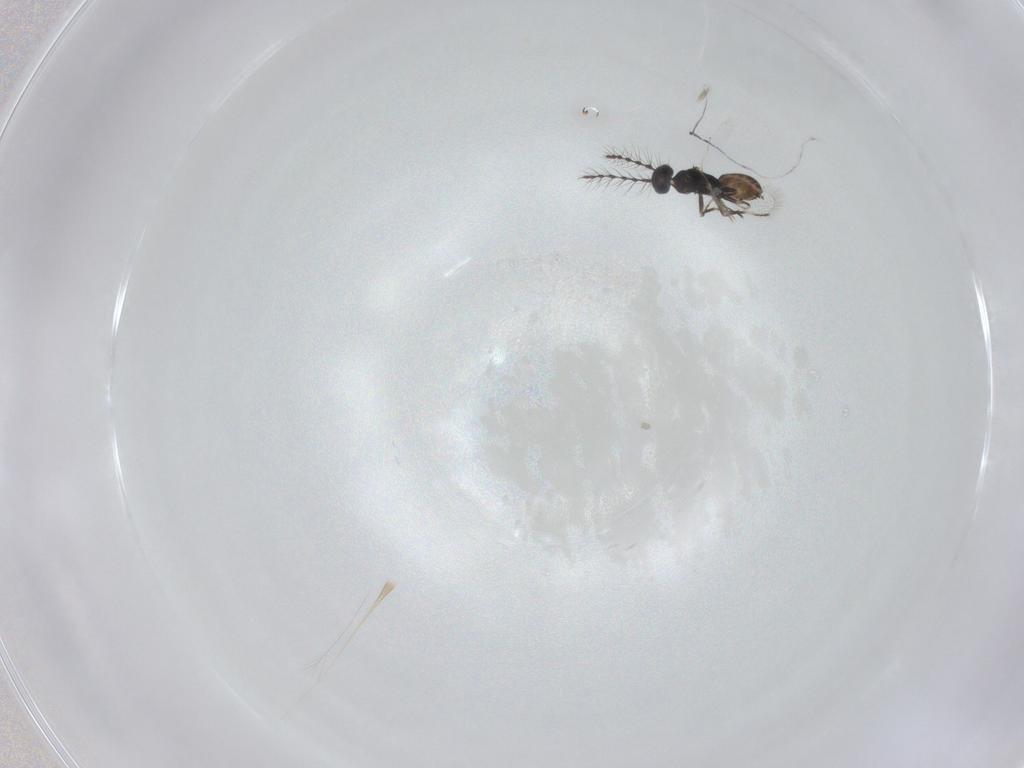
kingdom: Animalia
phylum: Arthropoda
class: Insecta
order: Hymenoptera
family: Eulophidae
